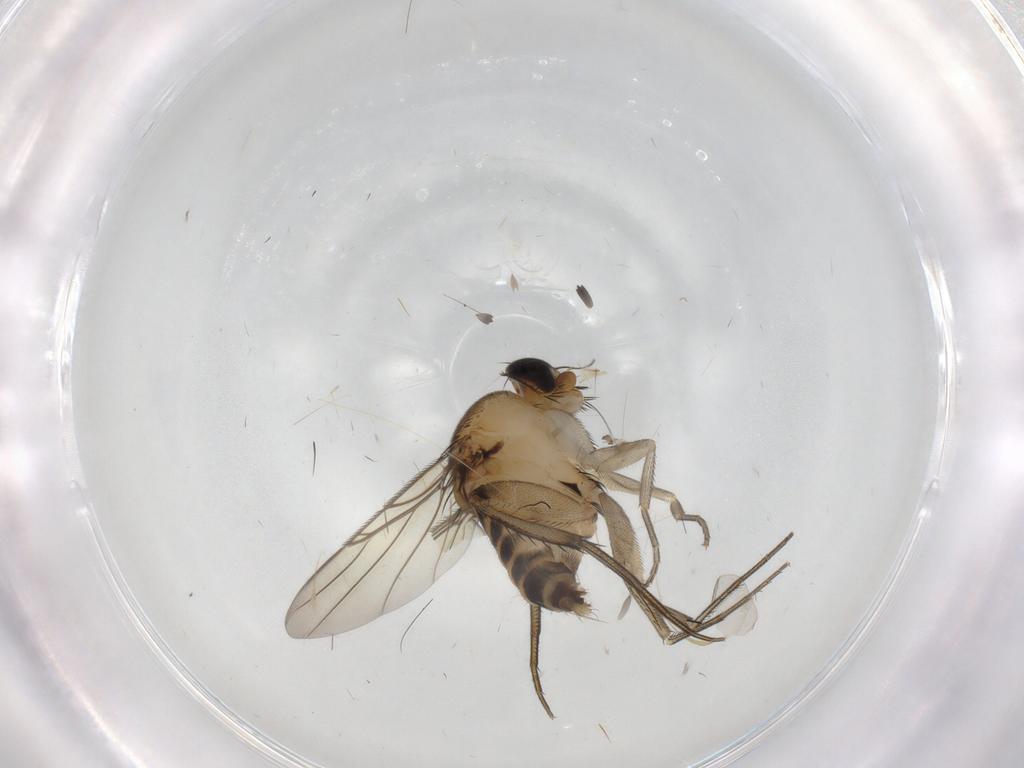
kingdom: Animalia
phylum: Arthropoda
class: Insecta
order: Diptera
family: Phoridae
